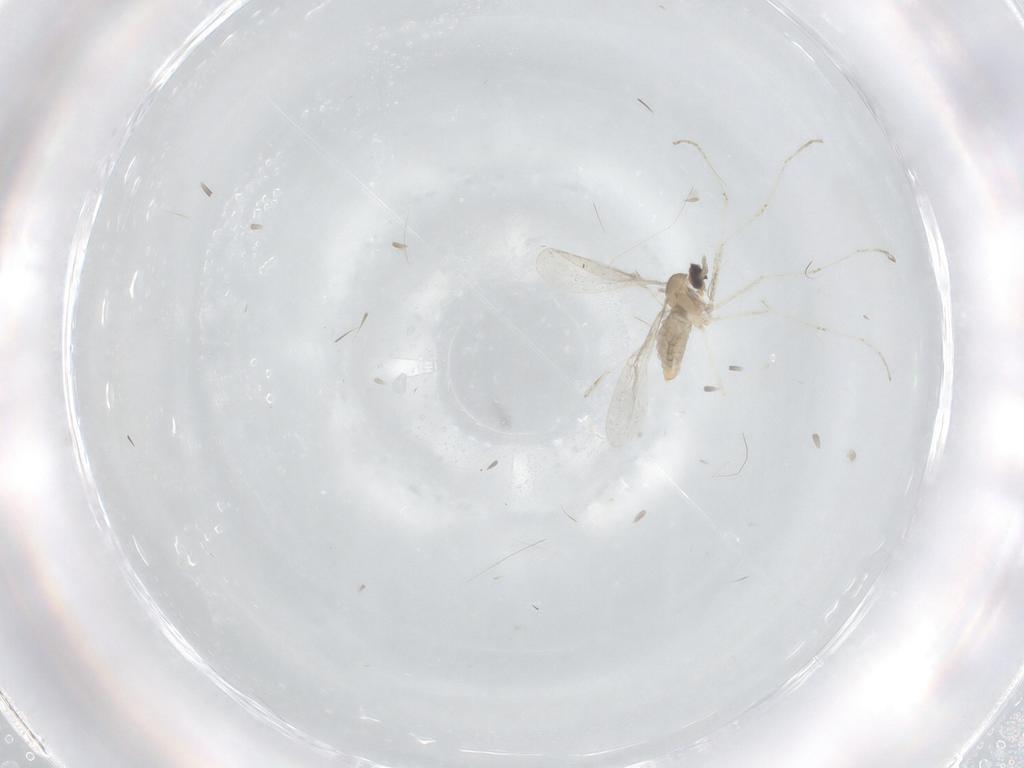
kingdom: Animalia
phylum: Arthropoda
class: Insecta
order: Diptera
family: Cecidomyiidae
